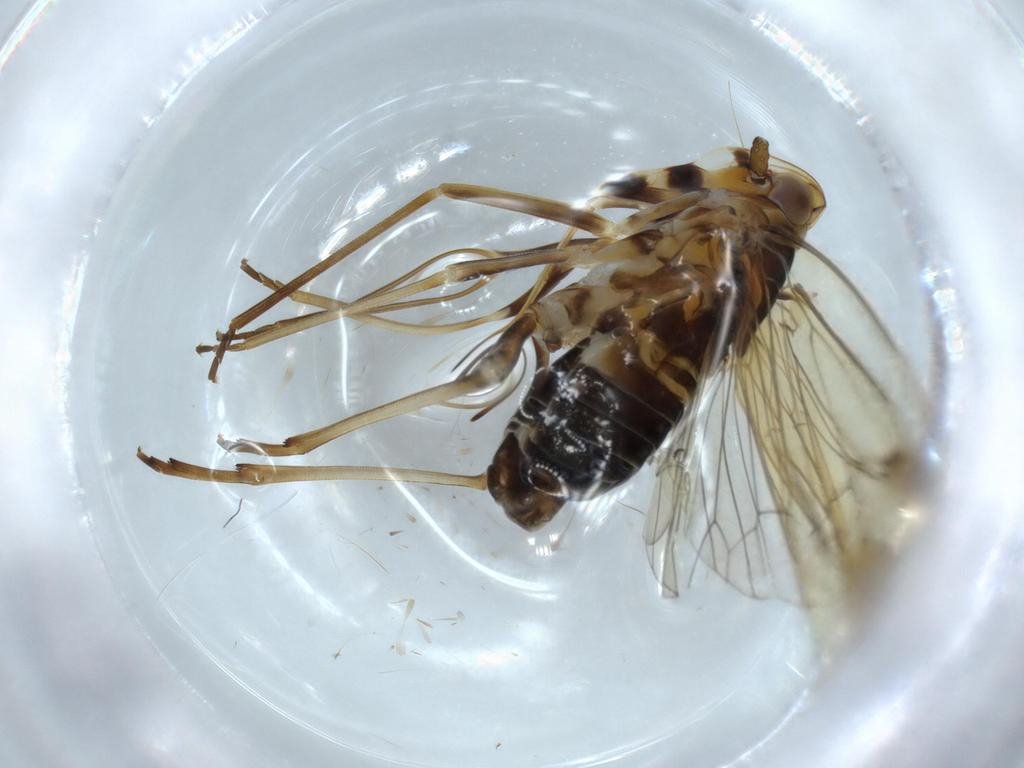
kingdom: Animalia
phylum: Arthropoda
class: Insecta
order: Hemiptera
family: Kinnaridae
